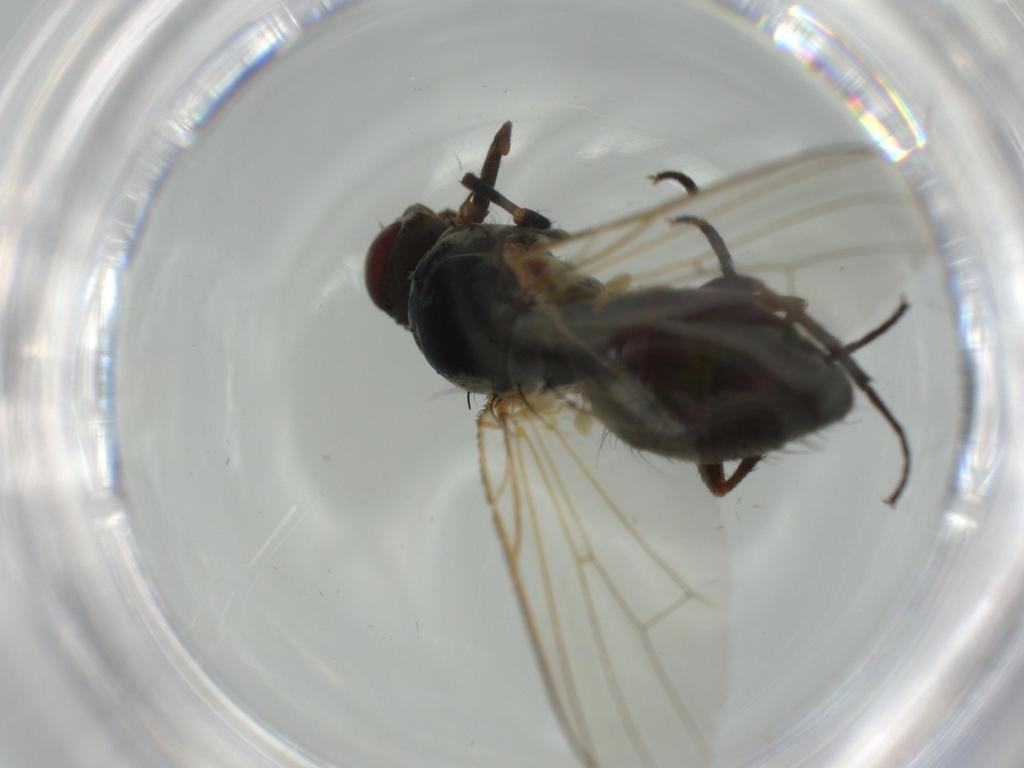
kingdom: Animalia
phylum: Arthropoda
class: Insecta
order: Diptera
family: Anthomyiidae
